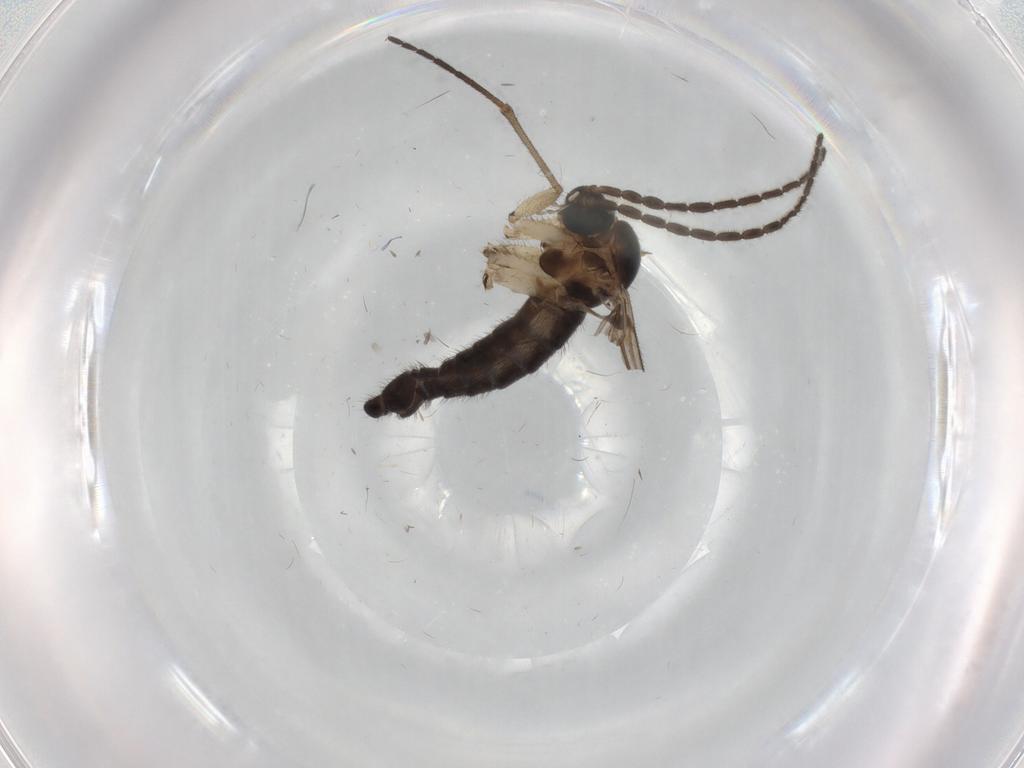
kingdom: Animalia
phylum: Arthropoda
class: Insecta
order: Diptera
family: Sciaridae
